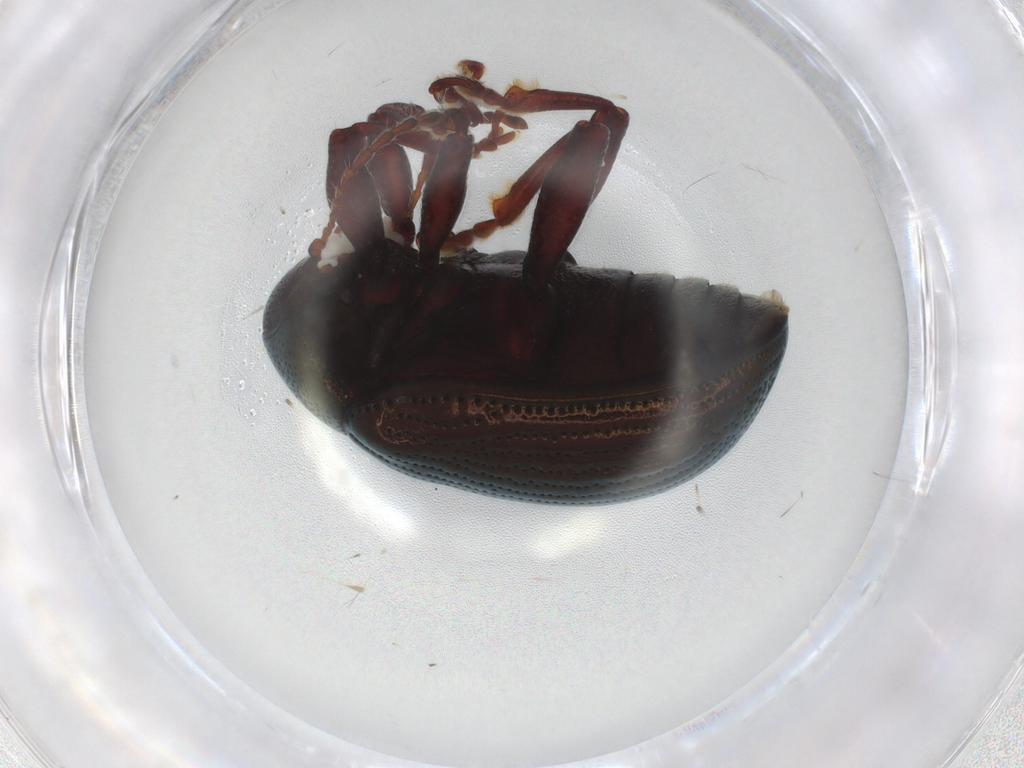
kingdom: Animalia
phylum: Arthropoda
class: Insecta
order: Coleoptera
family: Chrysomelidae
